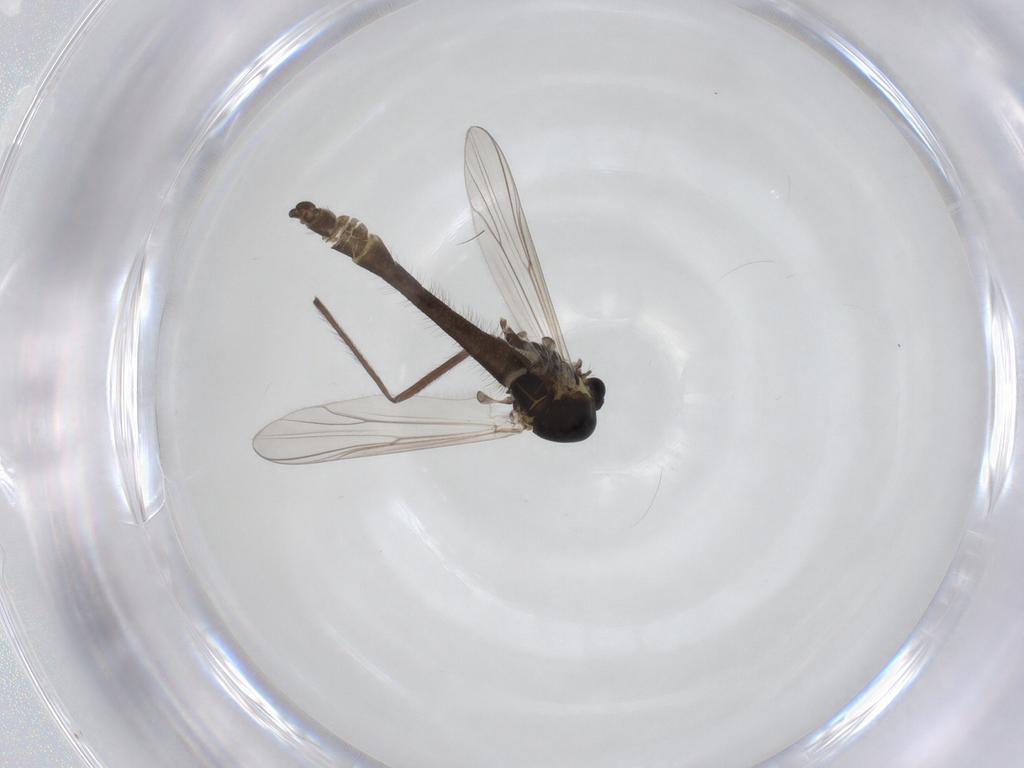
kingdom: Animalia
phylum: Arthropoda
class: Insecta
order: Diptera
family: Chironomidae
